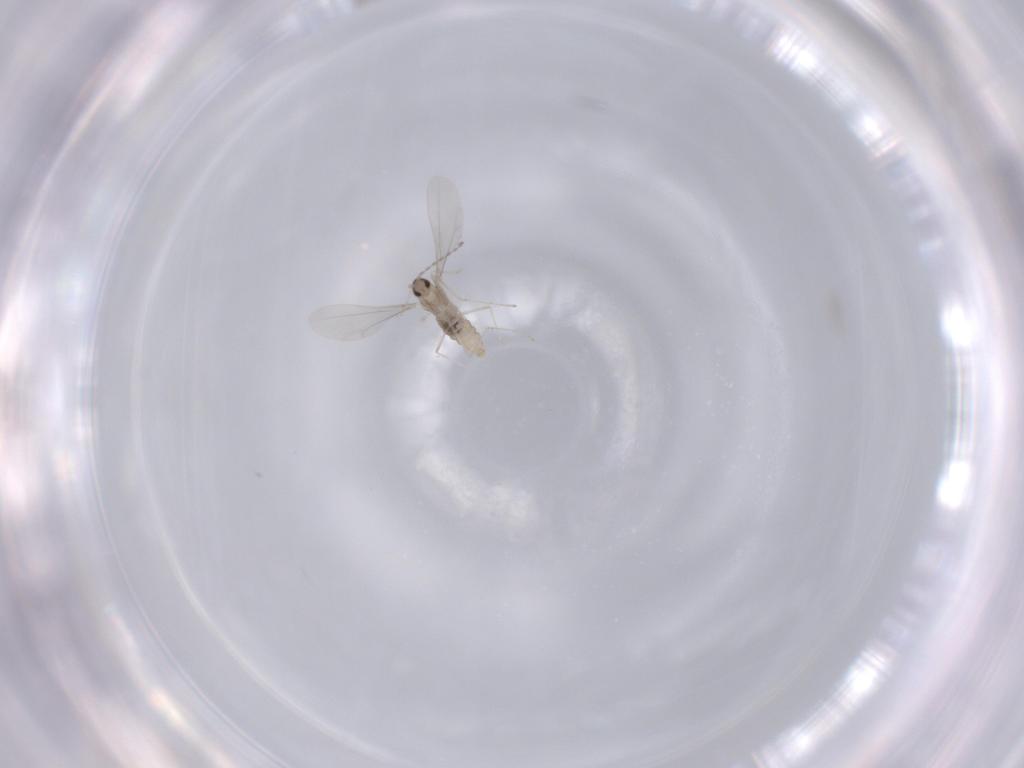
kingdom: Animalia
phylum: Arthropoda
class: Insecta
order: Diptera
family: Cecidomyiidae
